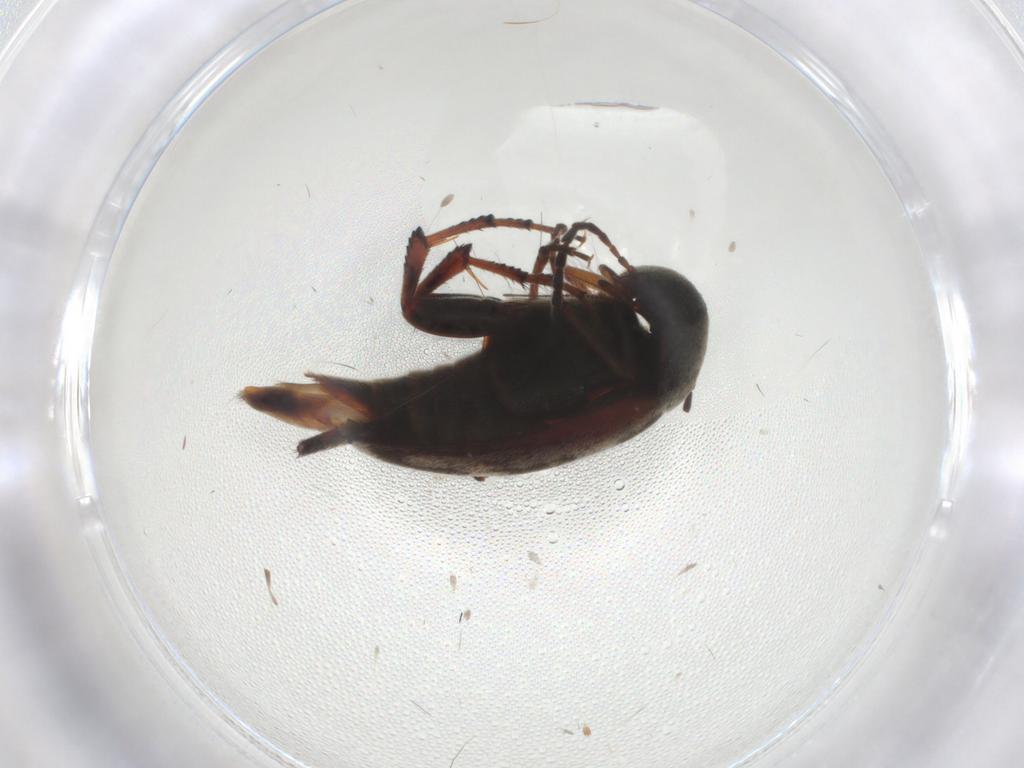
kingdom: Animalia
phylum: Arthropoda
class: Insecta
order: Coleoptera
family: Mordellidae
